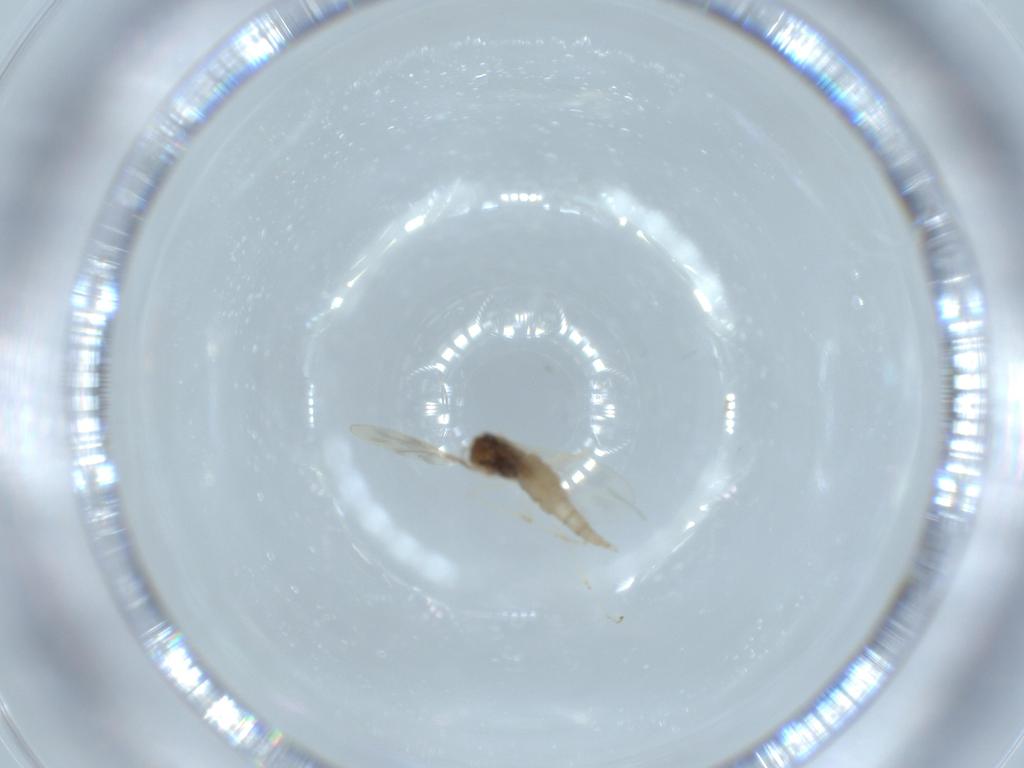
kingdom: Animalia
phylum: Arthropoda
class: Insecta
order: Diptera
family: Cecidomyiidae
